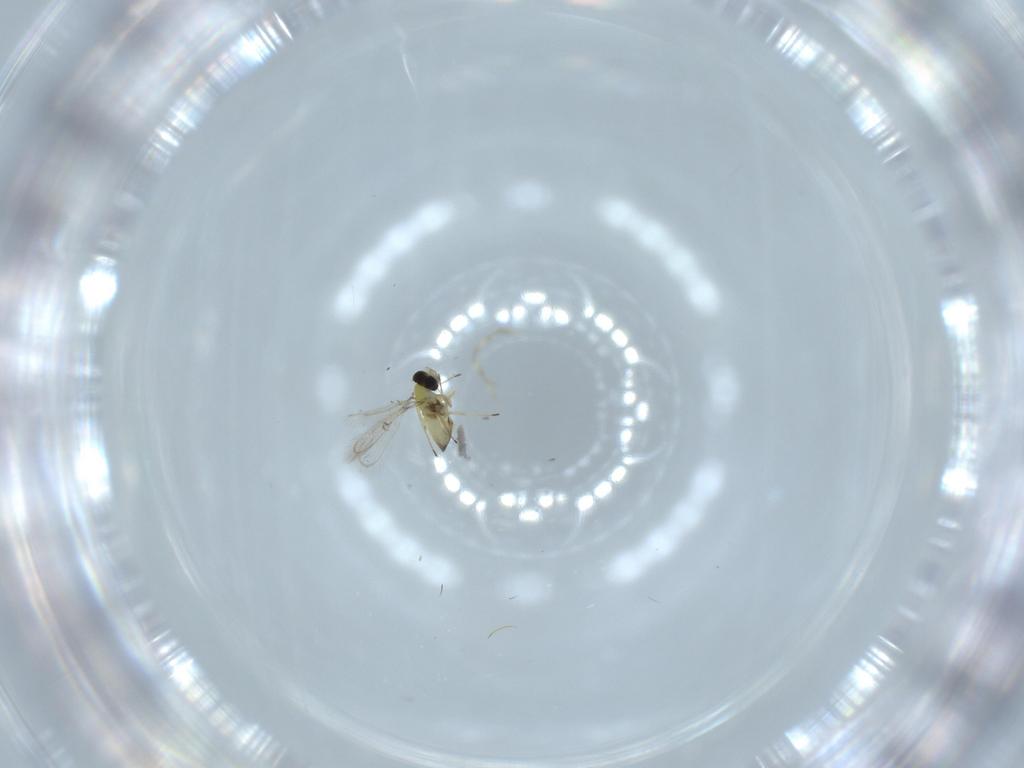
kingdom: Animalia
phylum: Arthropoda
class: Insecta
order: Hymenoptera
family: Trichogrammatidae
